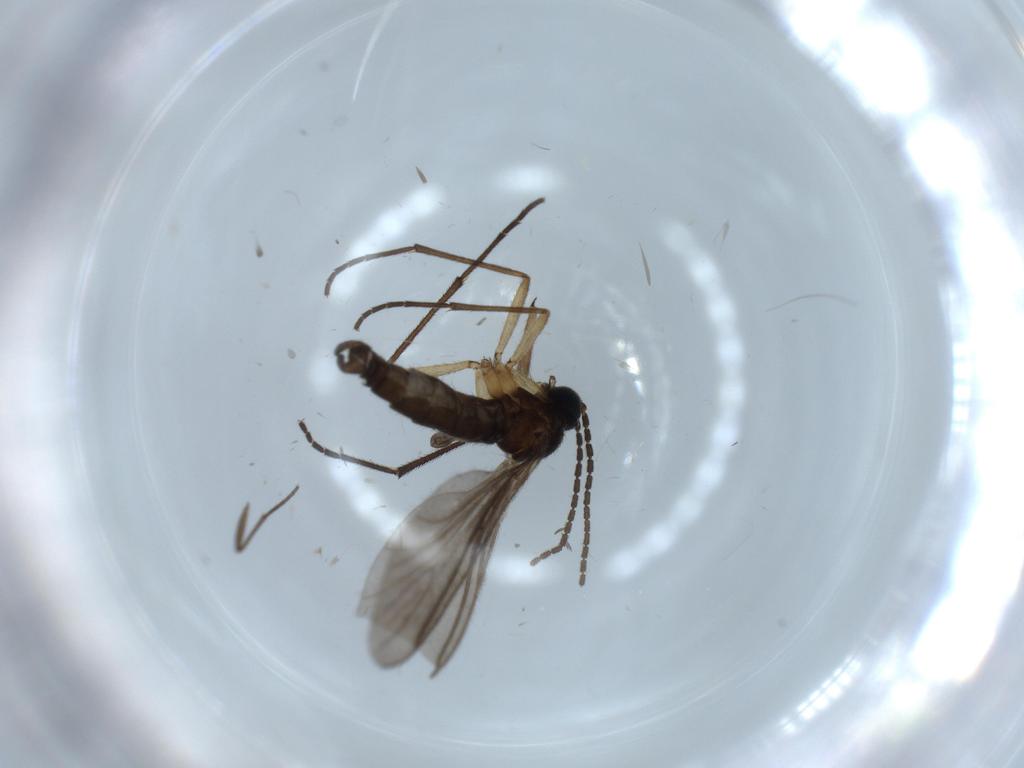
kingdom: Animalia
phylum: Arthropoda
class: Insecta
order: Diptera
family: Sciaridae
